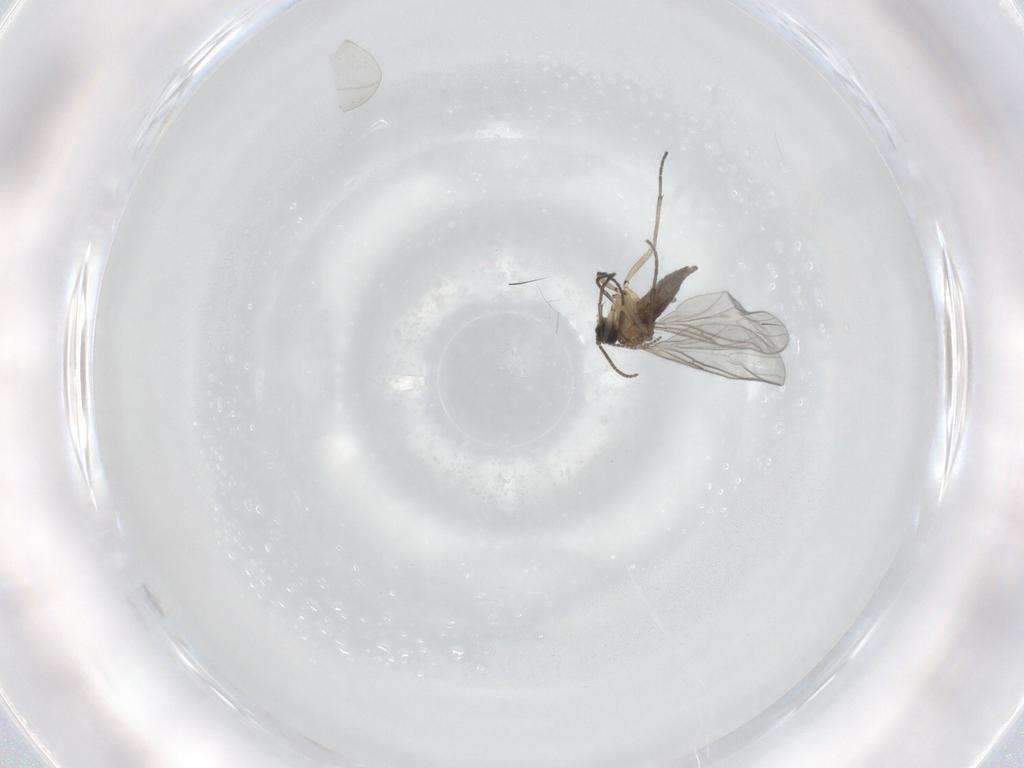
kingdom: Animalia
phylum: Arthropoda
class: Insecta
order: Diptera
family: Sciaridae
